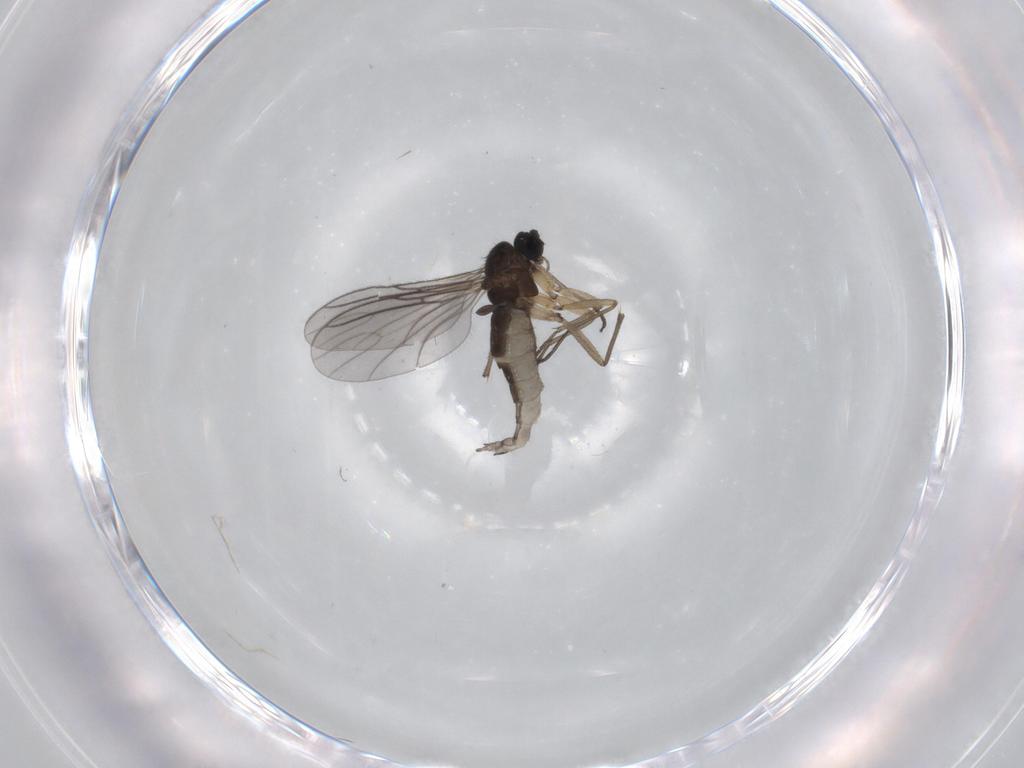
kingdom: Animalia
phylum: Arthropoda
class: Insecta
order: Diptera
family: Sciaridae
